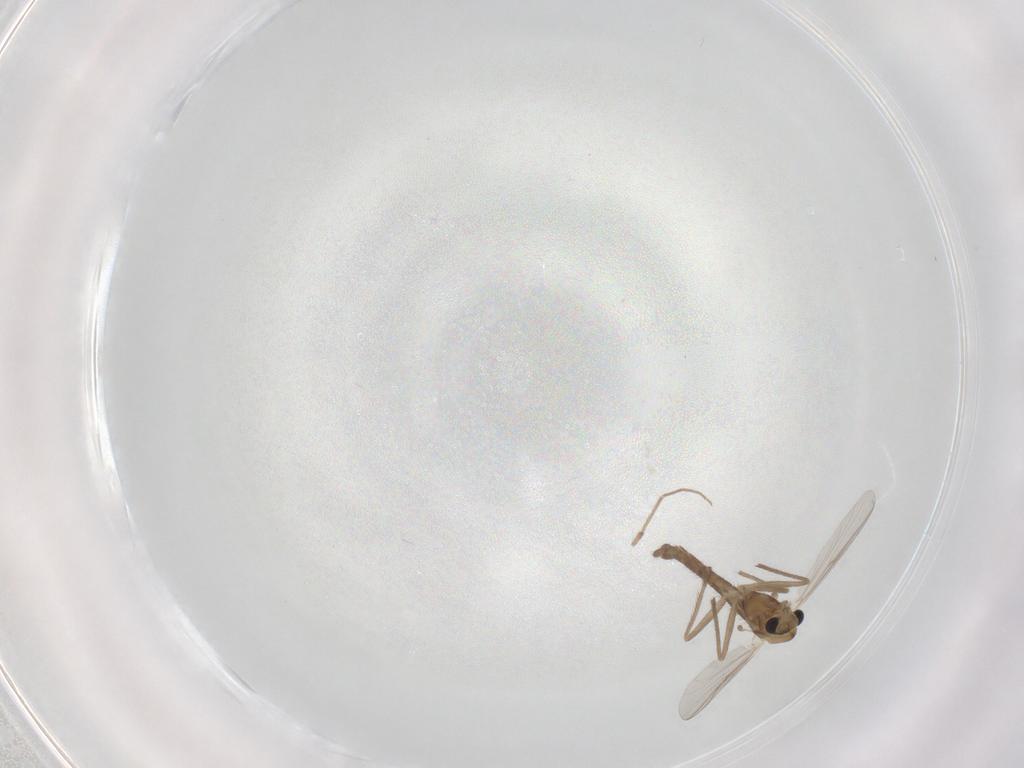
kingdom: Animalia
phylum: Arthropoda
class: Insecta
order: Diptera
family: Chironomidae
